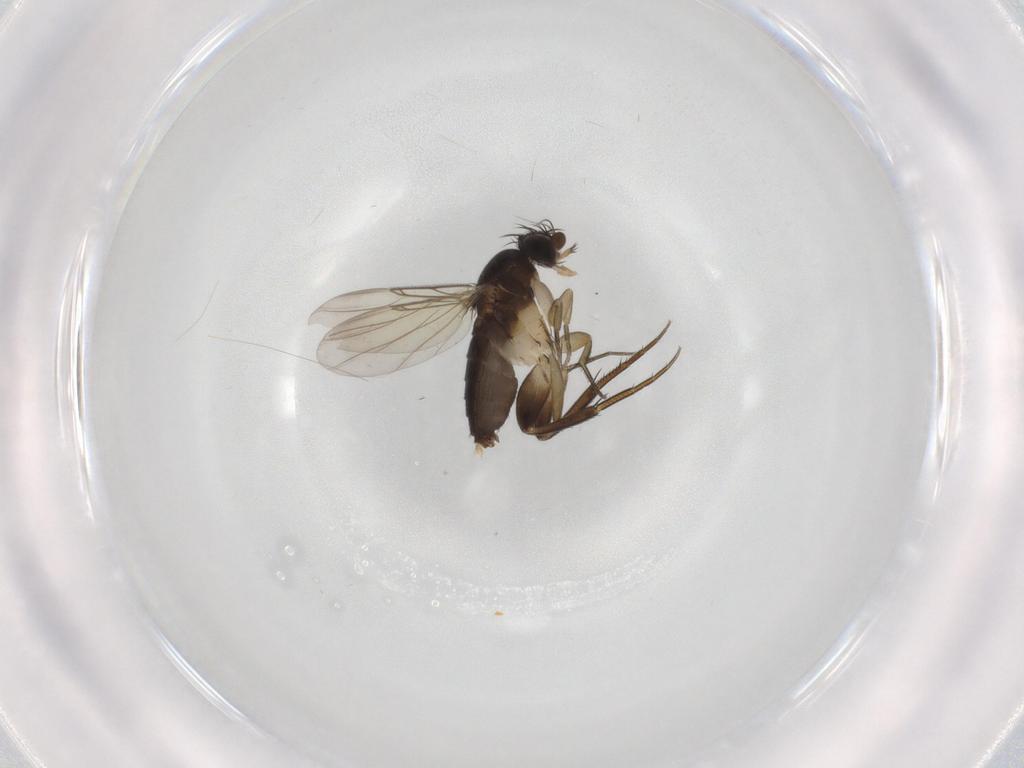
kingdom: Animalia
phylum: Arthropoda
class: Insecta
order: Diptera
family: Phoridae
